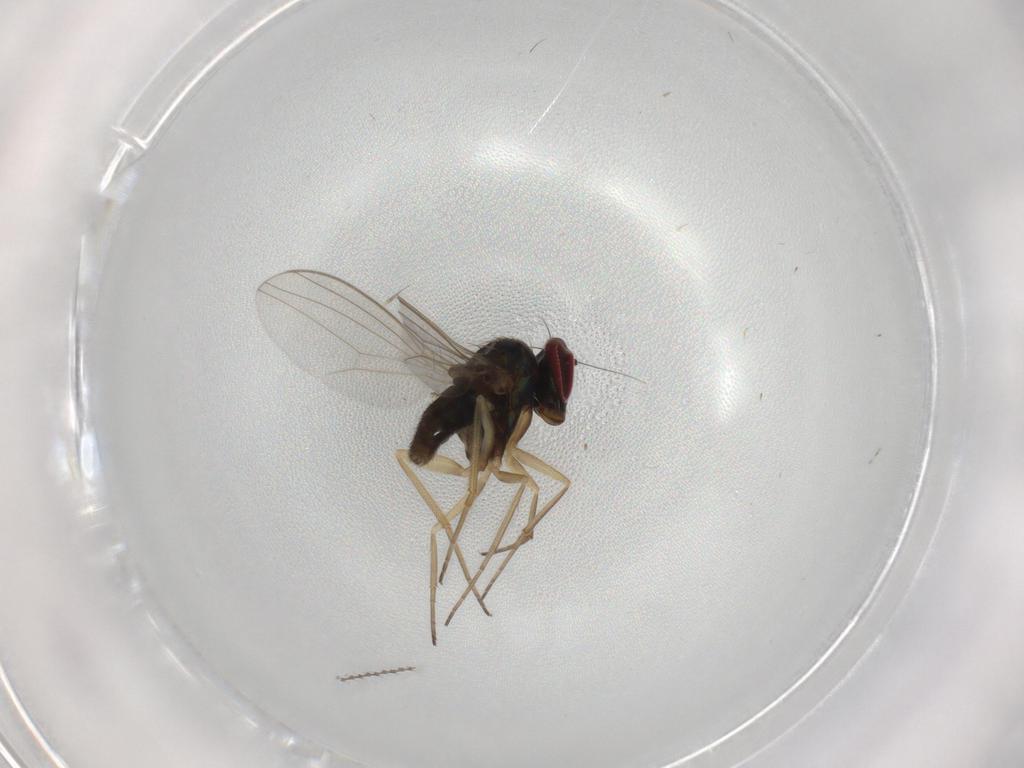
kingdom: Animalia
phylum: Arthropoda
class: Insecta
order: Diptera
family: Dolichopodidae
